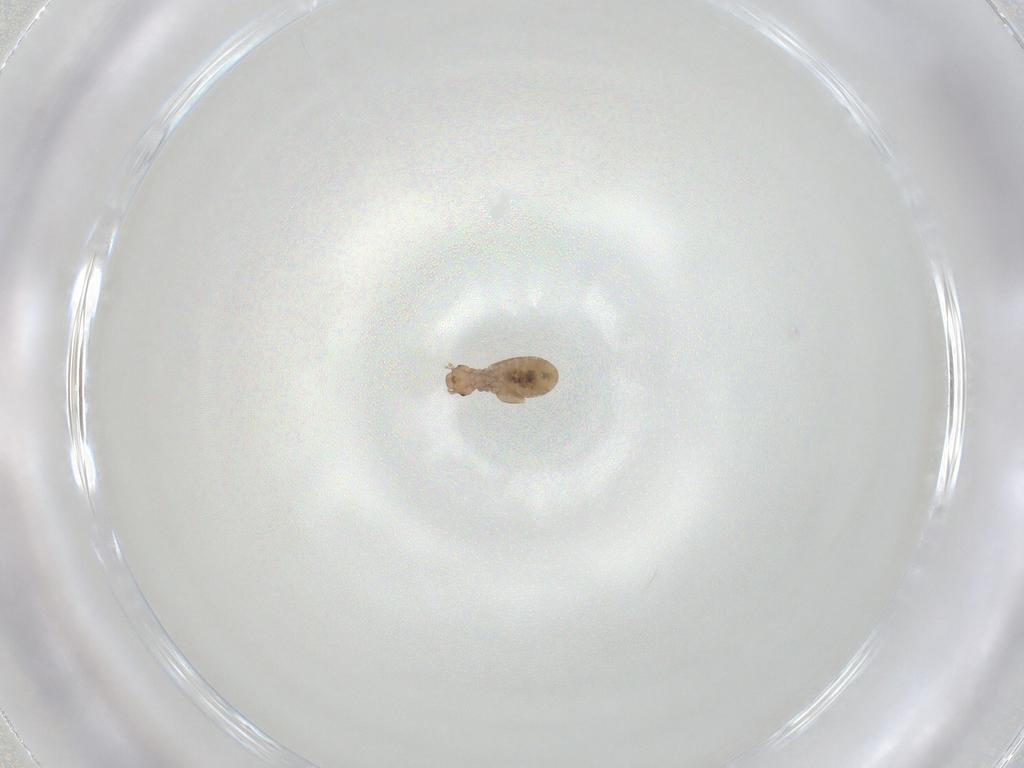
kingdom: Animalia
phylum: Arthropoda
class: Insecta
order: Psocodea
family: Liposcelididae
